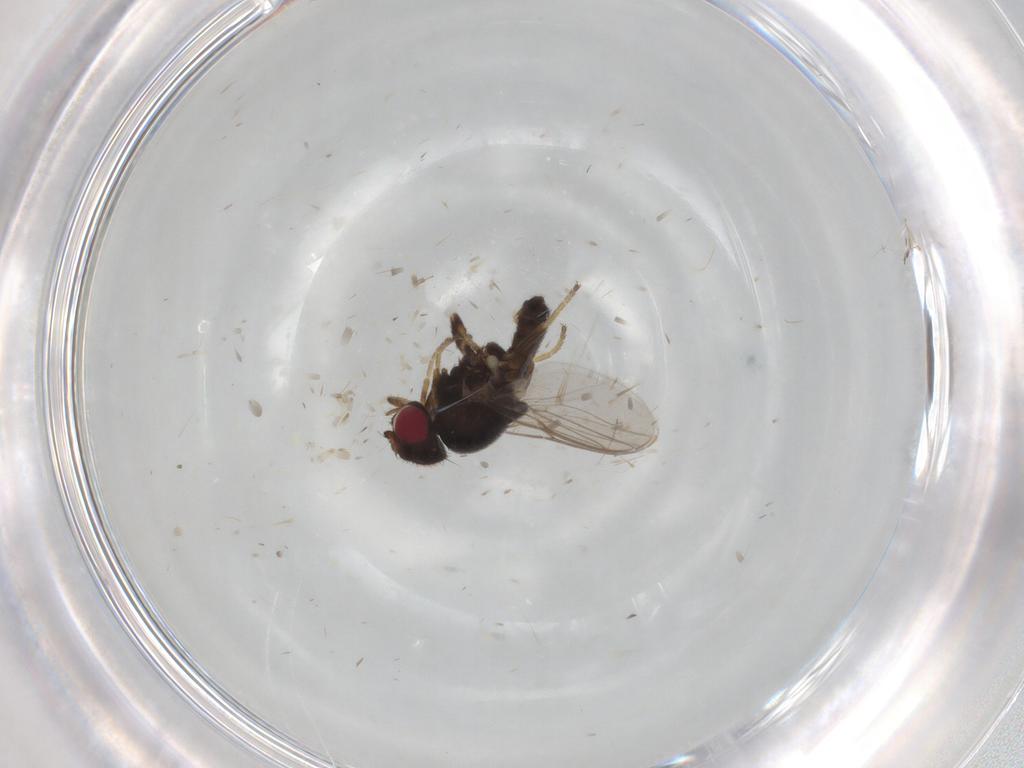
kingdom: Animalia
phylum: Arthropoda
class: Insecta
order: Diptera
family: Chloropidae
